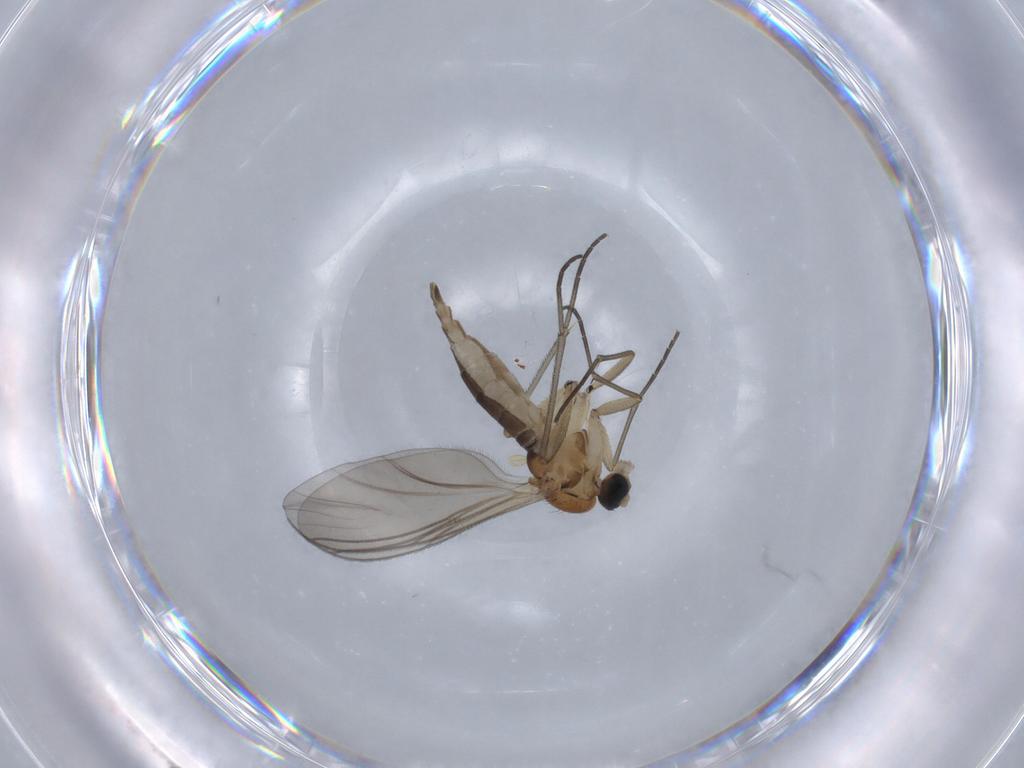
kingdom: Animalia
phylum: Arthropoda
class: Insecta
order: Diptera
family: Sciaridae
